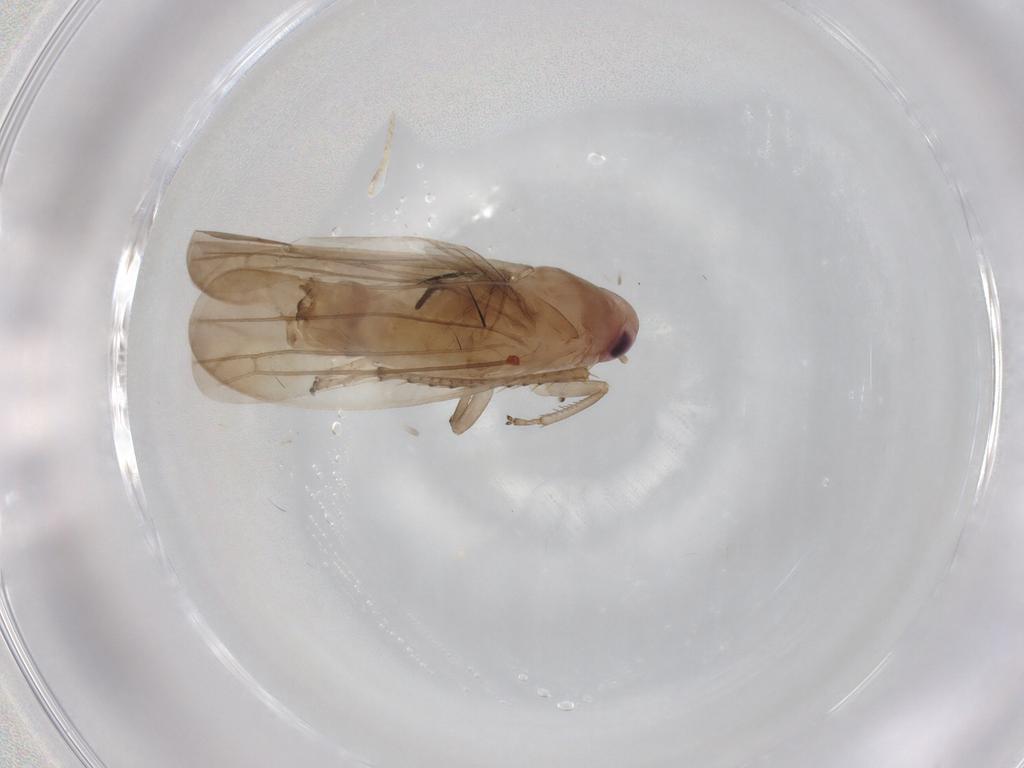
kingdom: Animalia
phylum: Arthropoda
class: Insecta
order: Hemiptera
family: Cicadellidae
